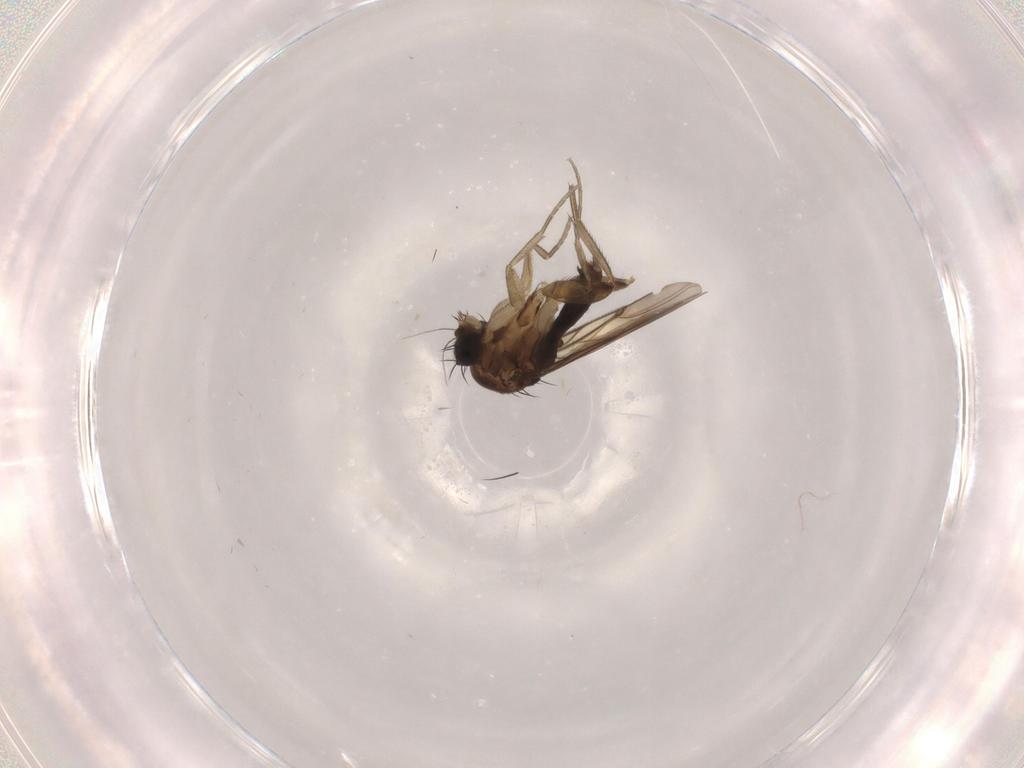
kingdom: Animalia
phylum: Arthropoda
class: Insecta
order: Diptera
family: Phoridae
